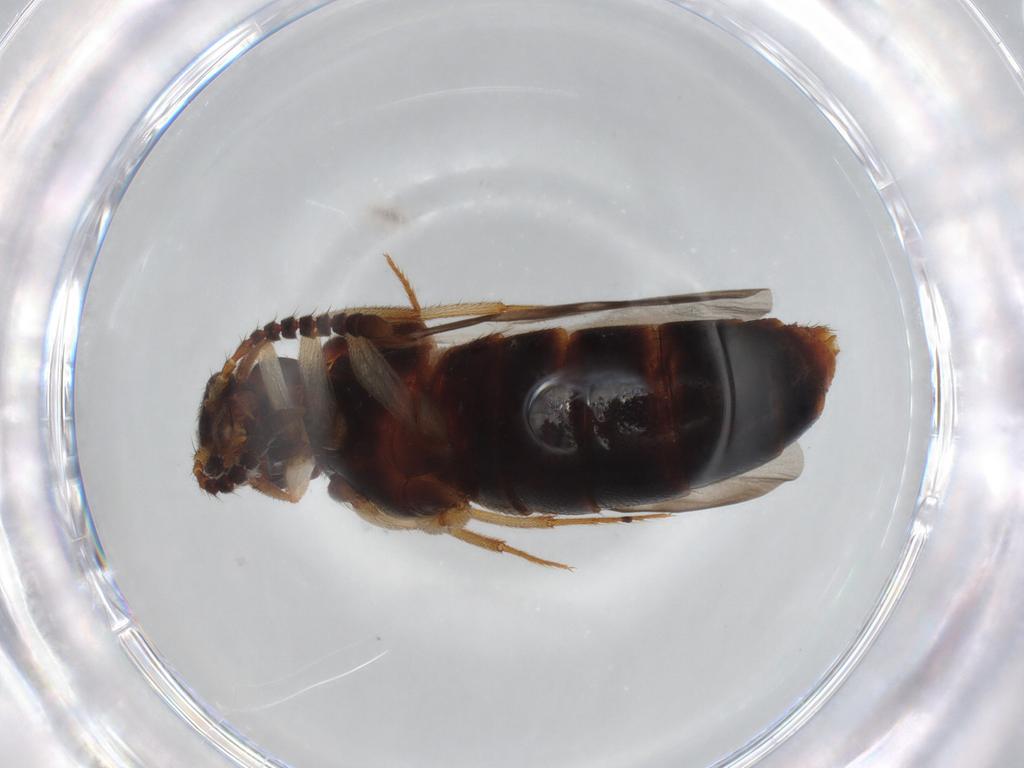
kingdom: Animalia
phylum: Arthropoda
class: Insecta
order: Coleoptera
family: Staphylinidae
